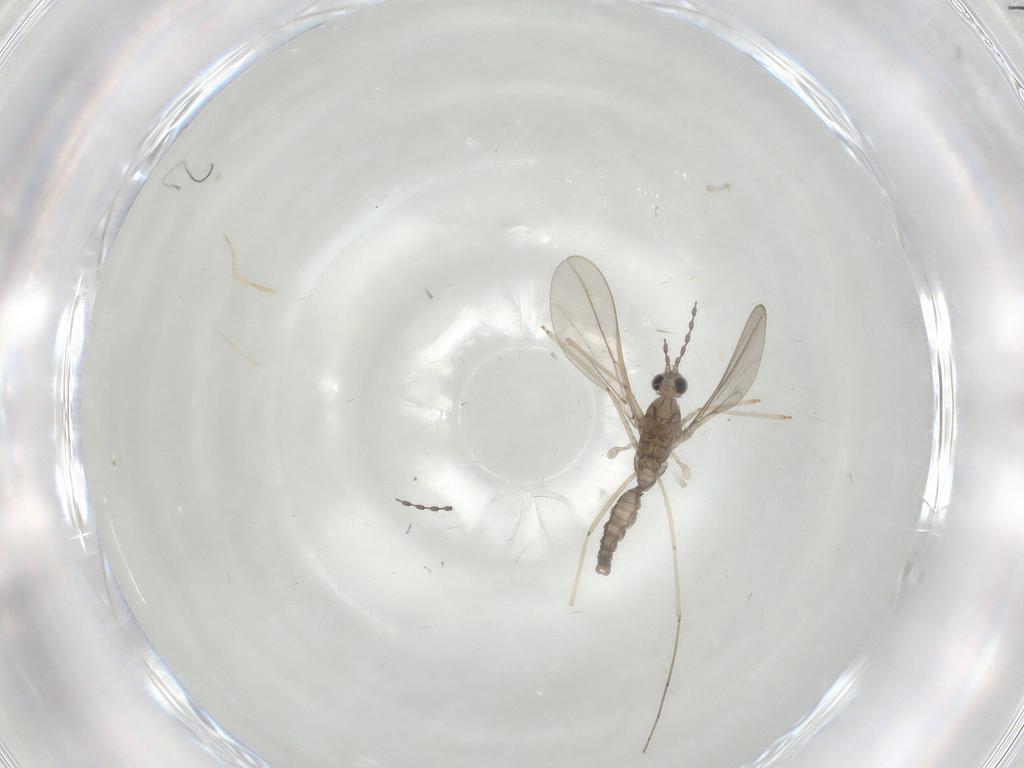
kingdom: Animalia
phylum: Arthropoda
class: Insecta
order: Diptera
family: Cecidomyiidae
